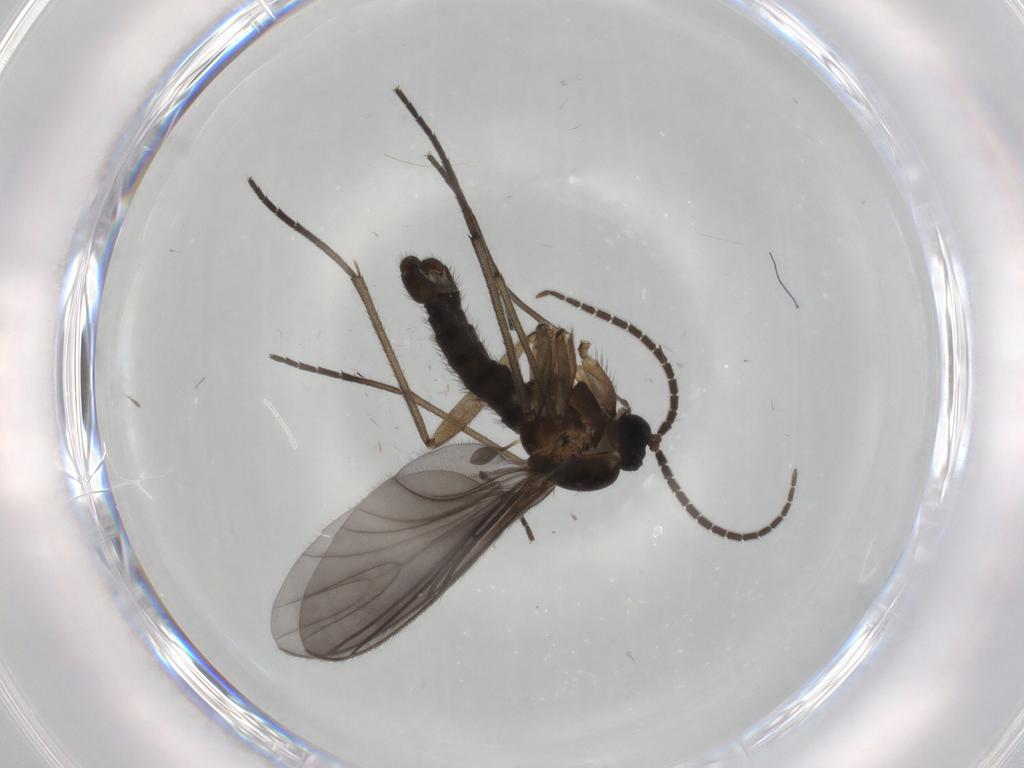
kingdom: Animalia
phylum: Arthropoda
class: Insecta
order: Diptera
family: Sciaridae
